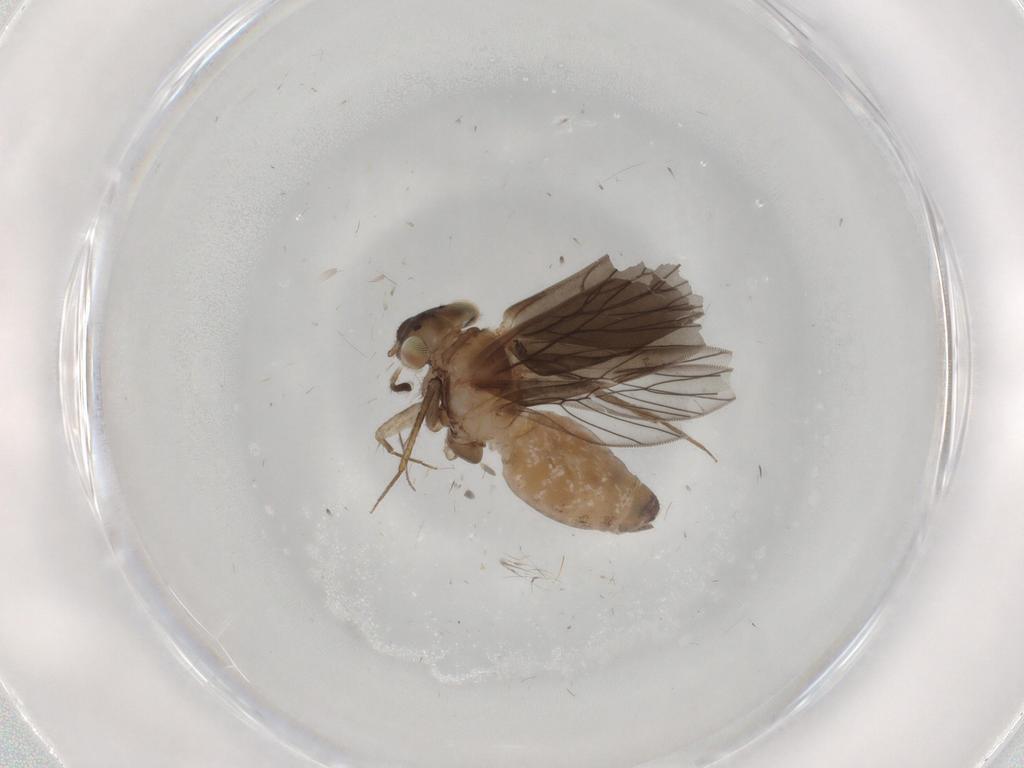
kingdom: Animalia
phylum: Arthropoda
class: Insecta
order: Psocodea
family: Lepidopsocidae
